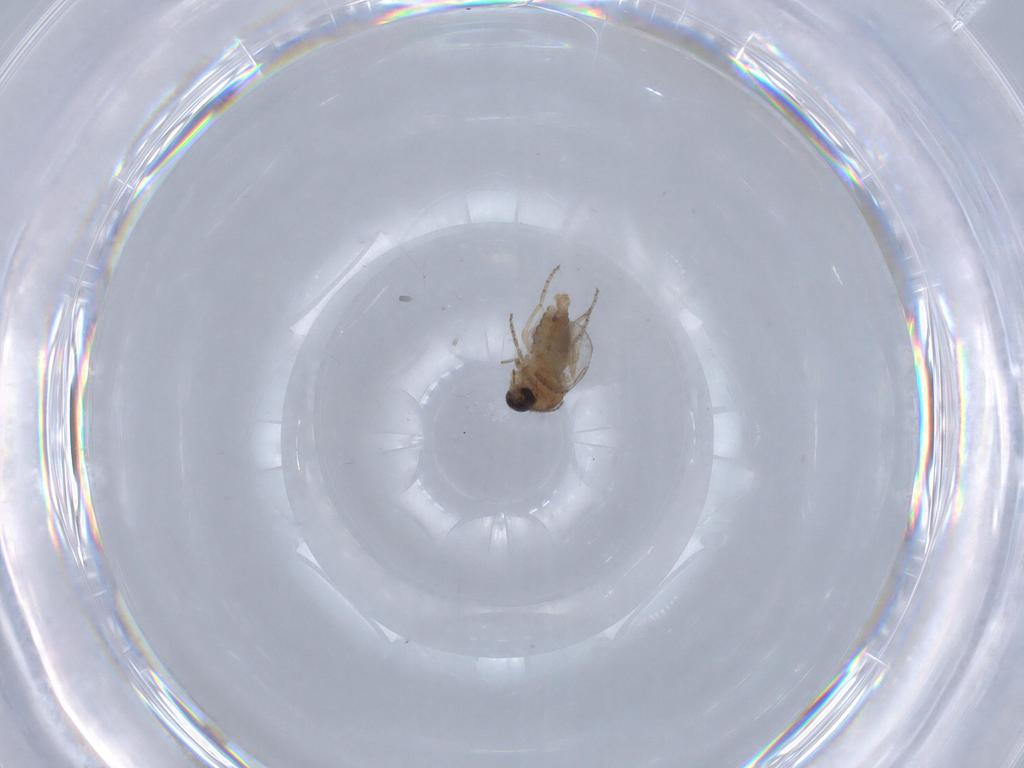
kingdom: Animalia
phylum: Arthropoda
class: Insecta
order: Diptera
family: Ceratopogonidae
